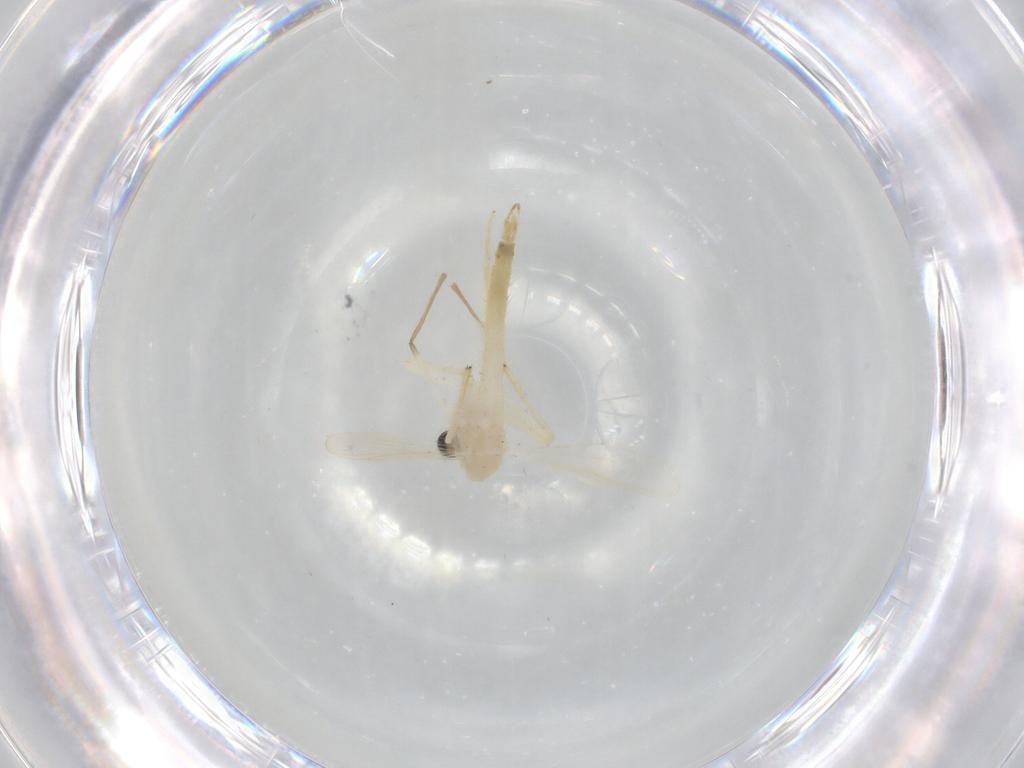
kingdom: Animalia
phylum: Arthropoda
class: Insecta
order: Diptera
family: Chironomidae
